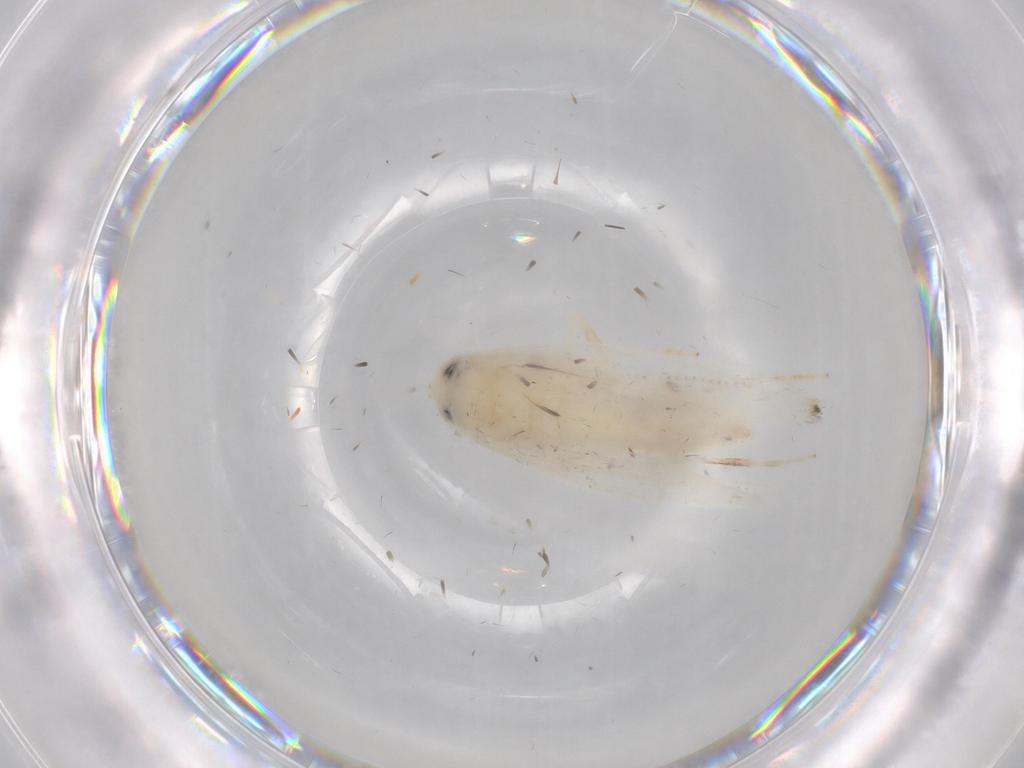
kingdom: Animalia
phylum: Arthropoda
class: Insecta
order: Lepidoptera
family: Stathmopodidae
